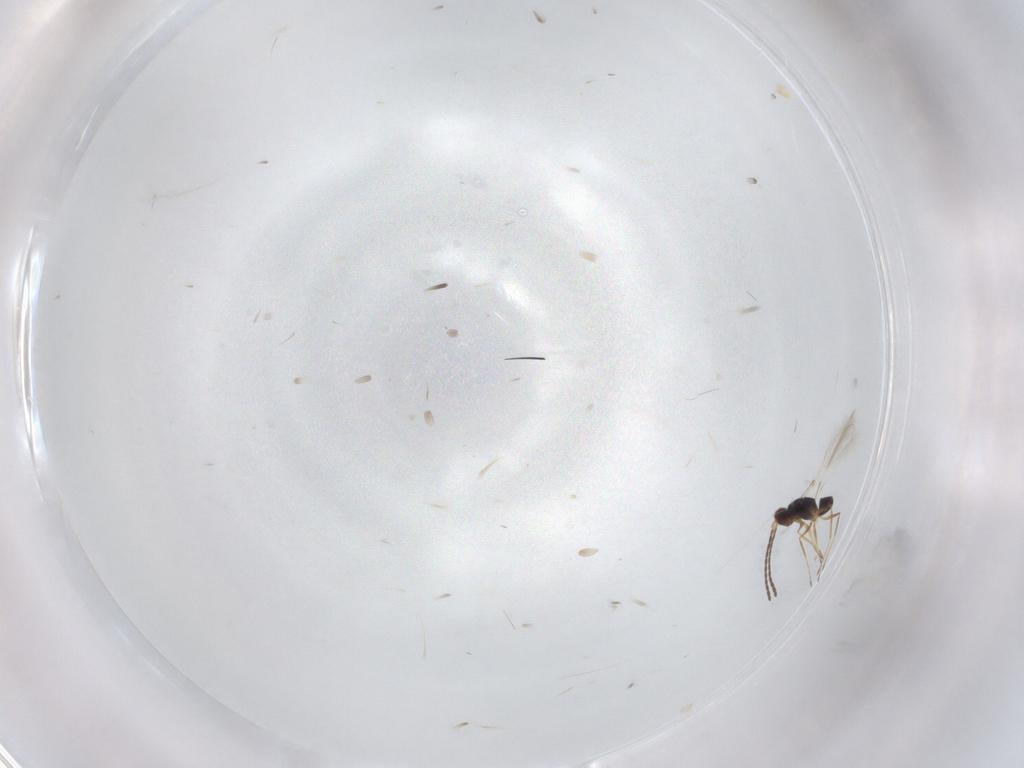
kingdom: Animalia
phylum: Arthropoda
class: Insecta
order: Hymenoptera
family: Mymaridae
